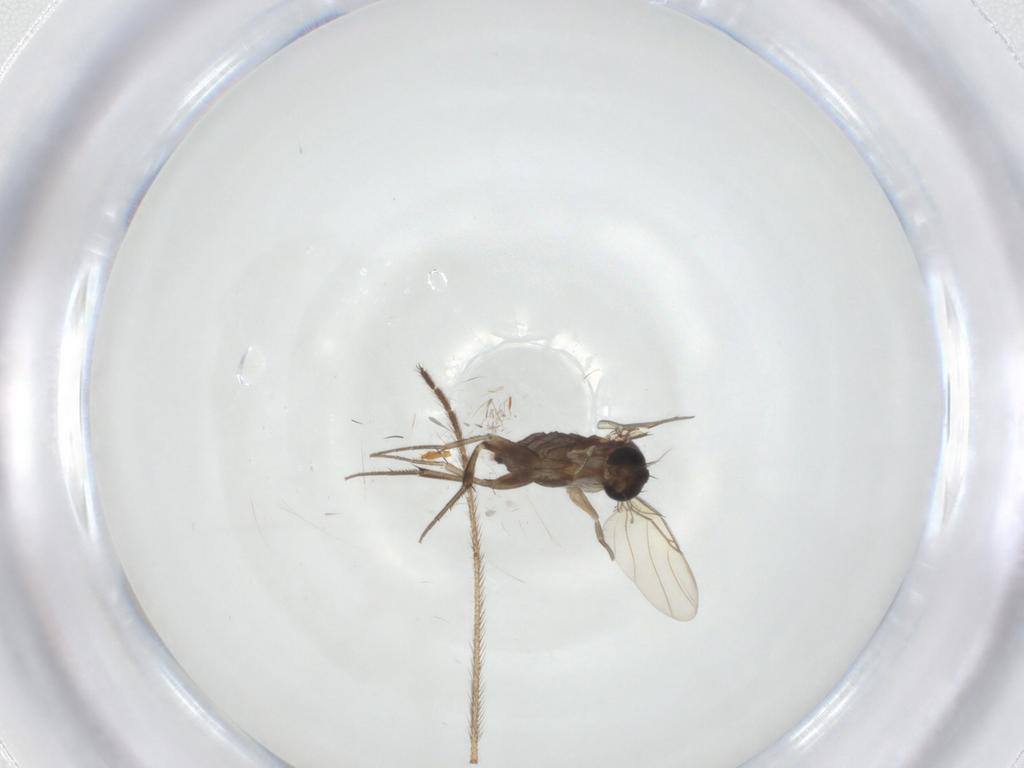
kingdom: Animalia
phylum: Arthropoda
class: Insecta
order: Diptera
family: Phoridae
